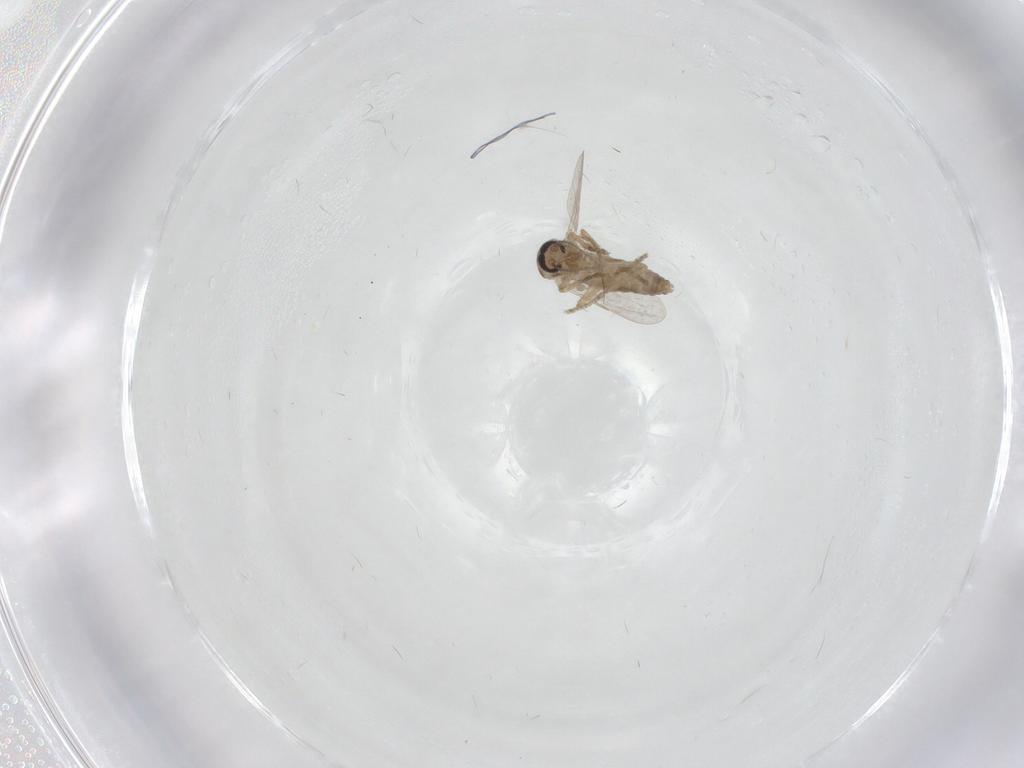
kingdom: Animalia
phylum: Arthropoda
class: Insecta
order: Diptera
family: Ceratopogonidae
